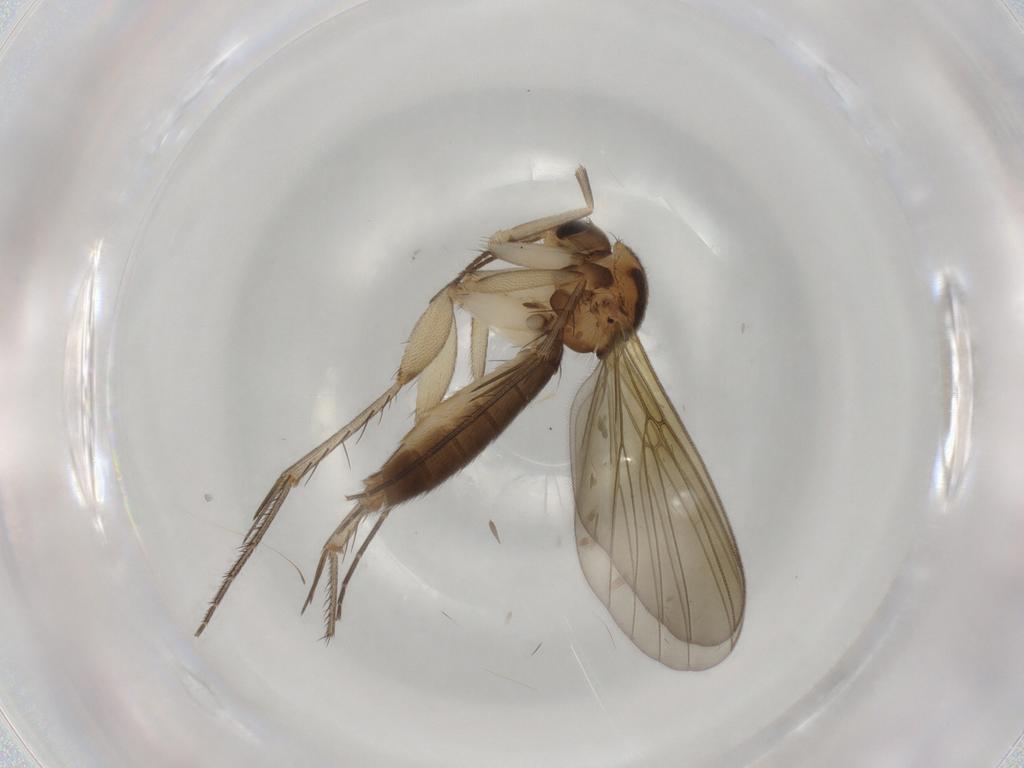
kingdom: Animalia
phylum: Arthropoda
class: Insecta
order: Diptera
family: Mycetophilidae
